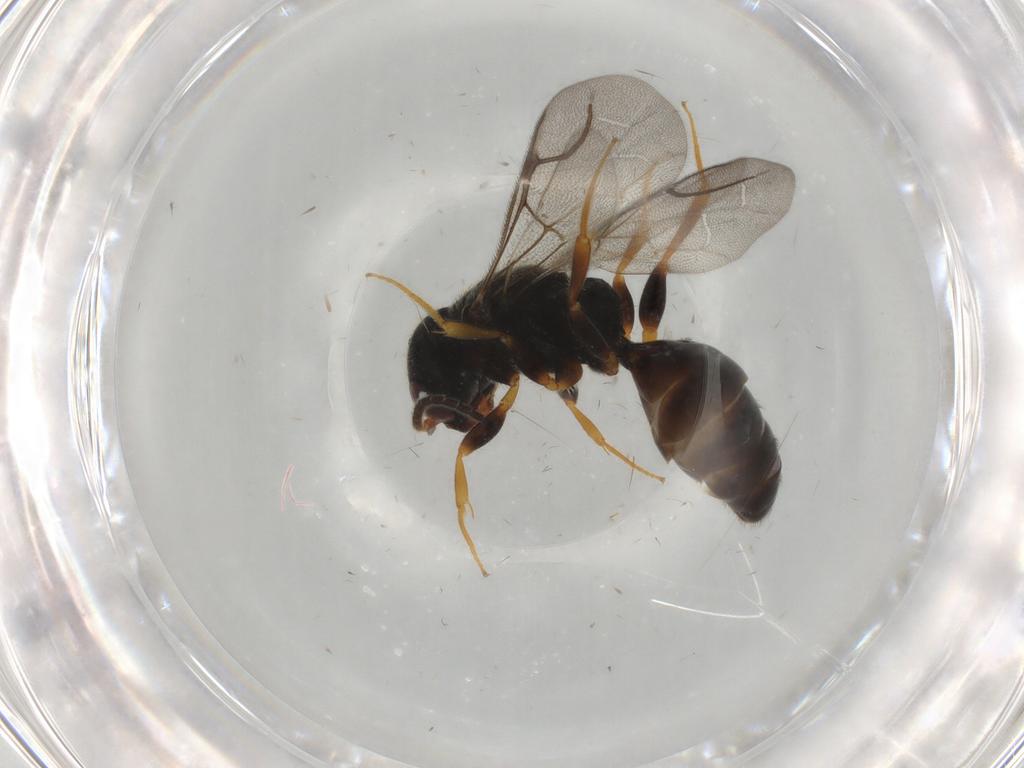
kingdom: Animalia
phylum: Arthropoda
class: Insecta
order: Hymenoptera
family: Bethylidae
